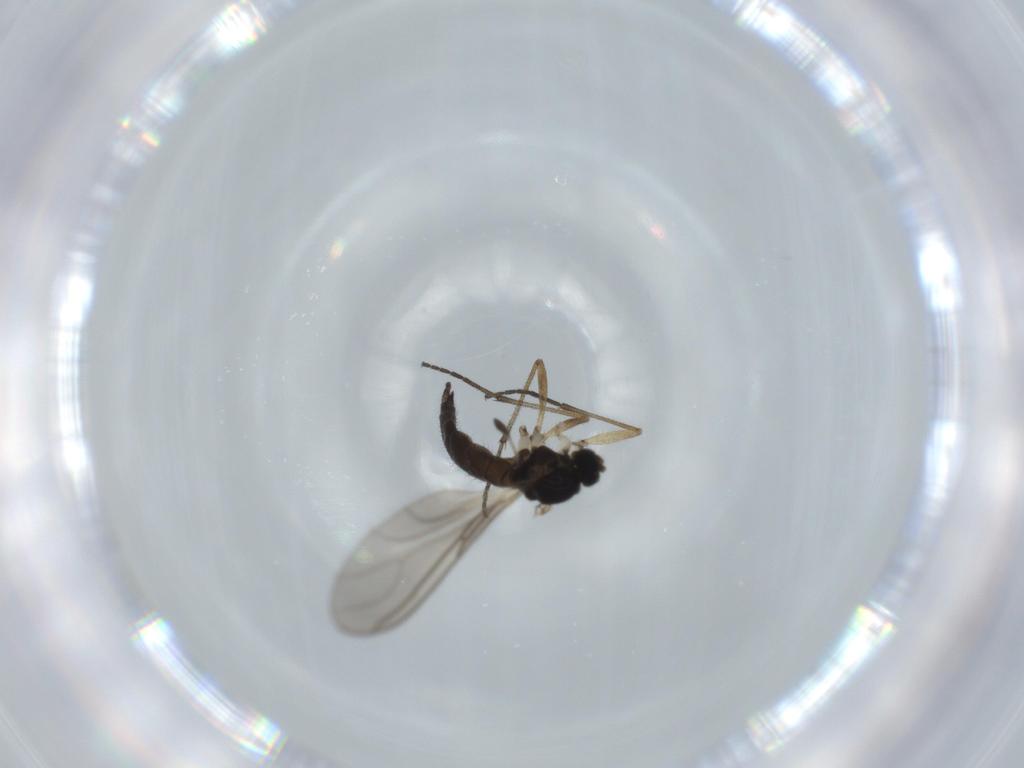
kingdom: Animalia
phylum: Arthropoda
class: Insecta
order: Diptera
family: Sciaridae
